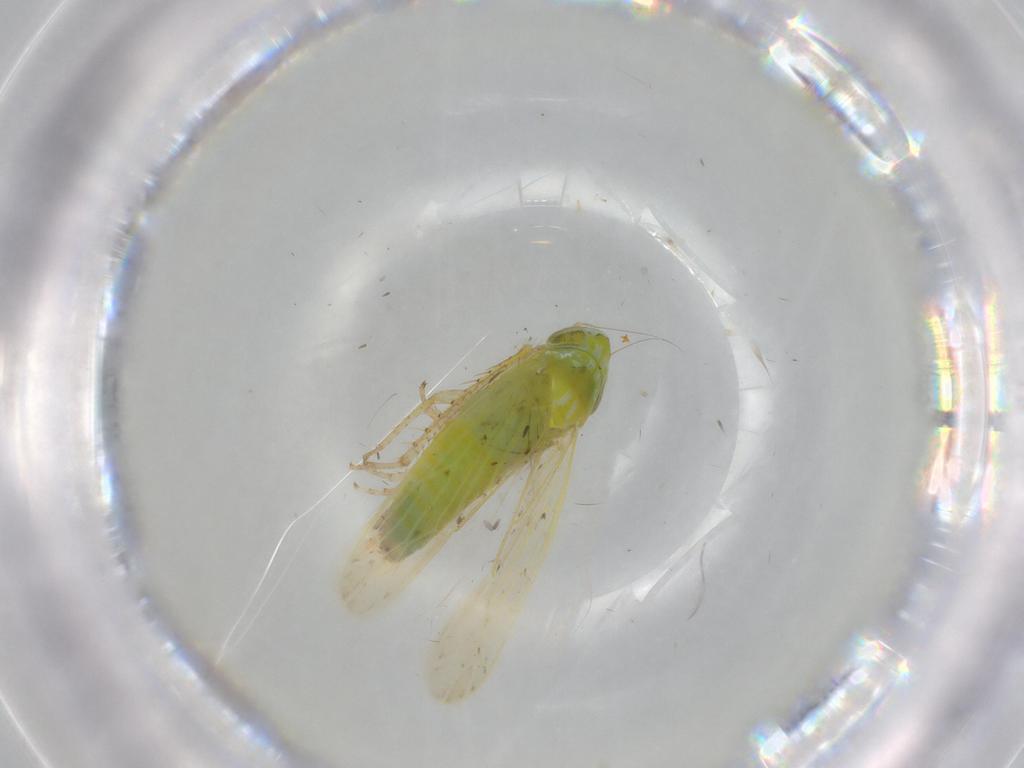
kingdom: Animalia
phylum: Arthropoda
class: Insecta
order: Hemiptera
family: Cicadellidae
